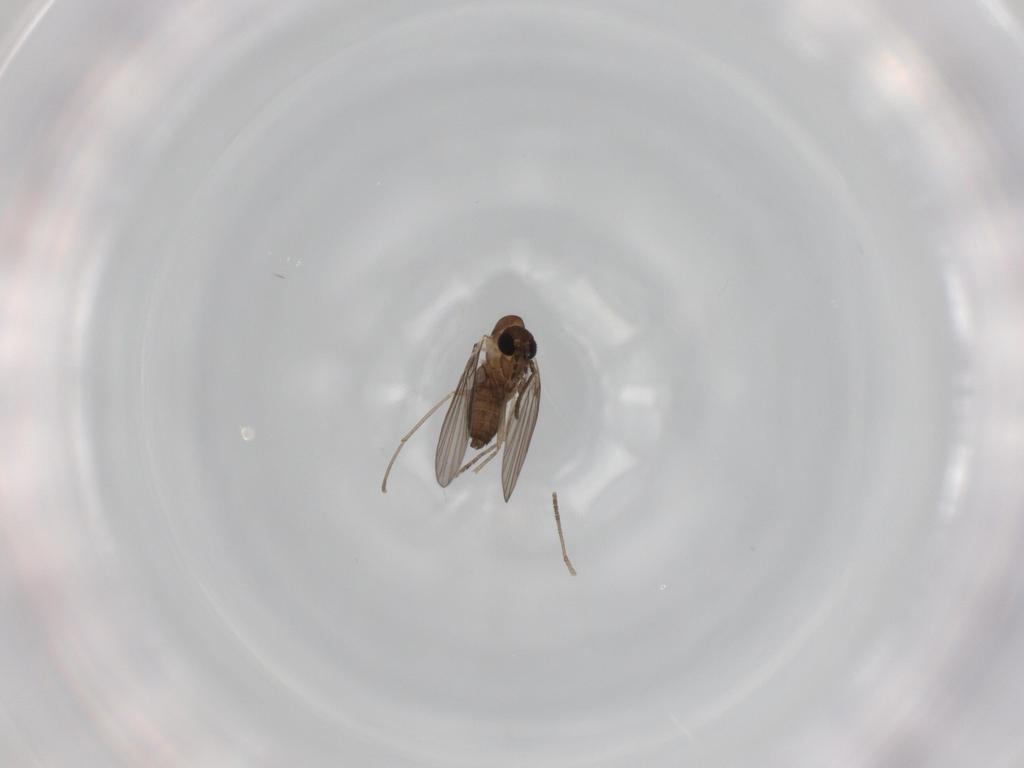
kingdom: Animalia
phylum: Arthropoda
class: Insecta
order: Diptera
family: Psychodidae
